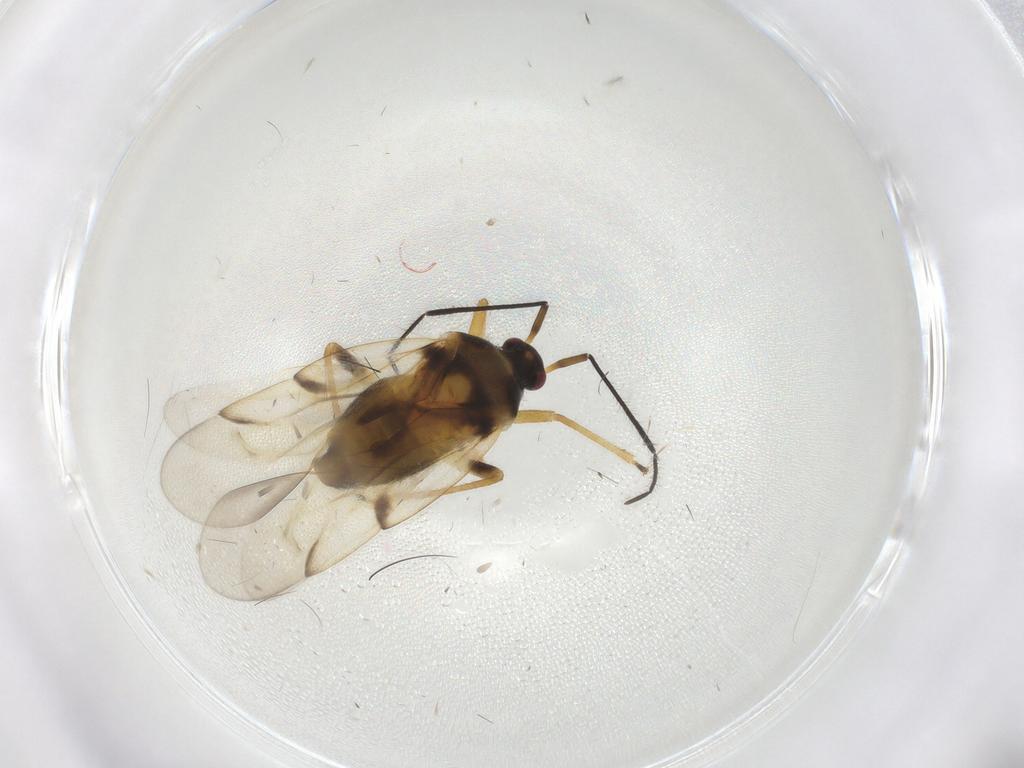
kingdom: Animalia
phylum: Arthropoda
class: Insecta
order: Hemiptera
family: Miridae
